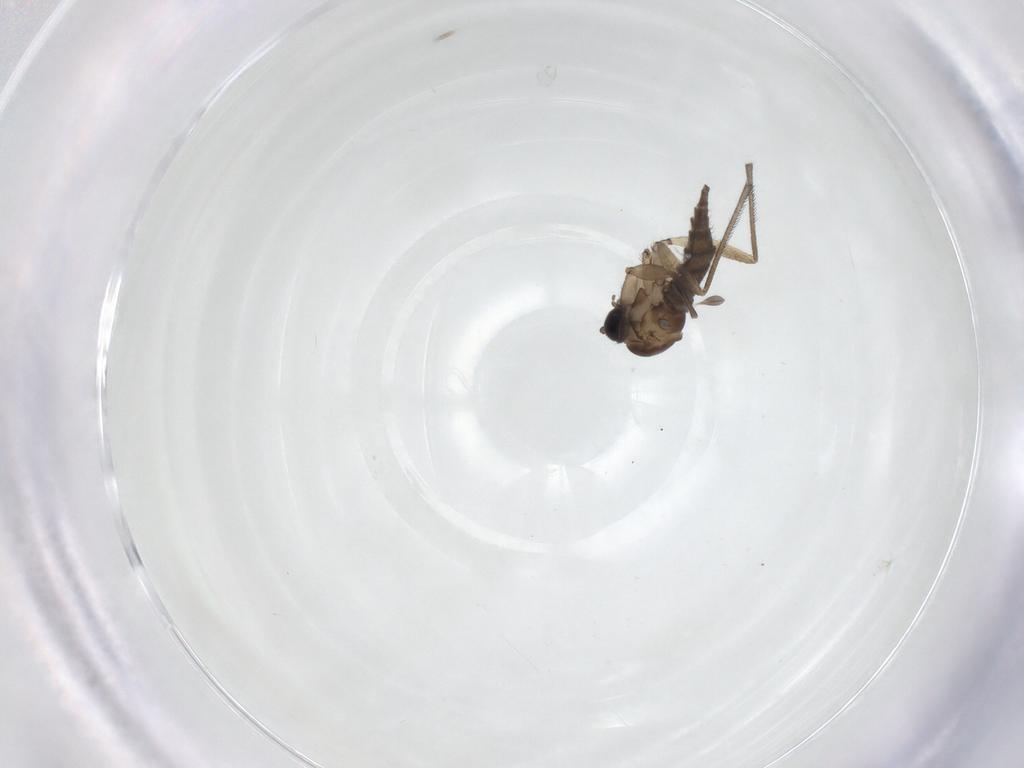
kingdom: Animalia
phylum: Arthropoda
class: Insecta
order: Diptera
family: Sciaridae
